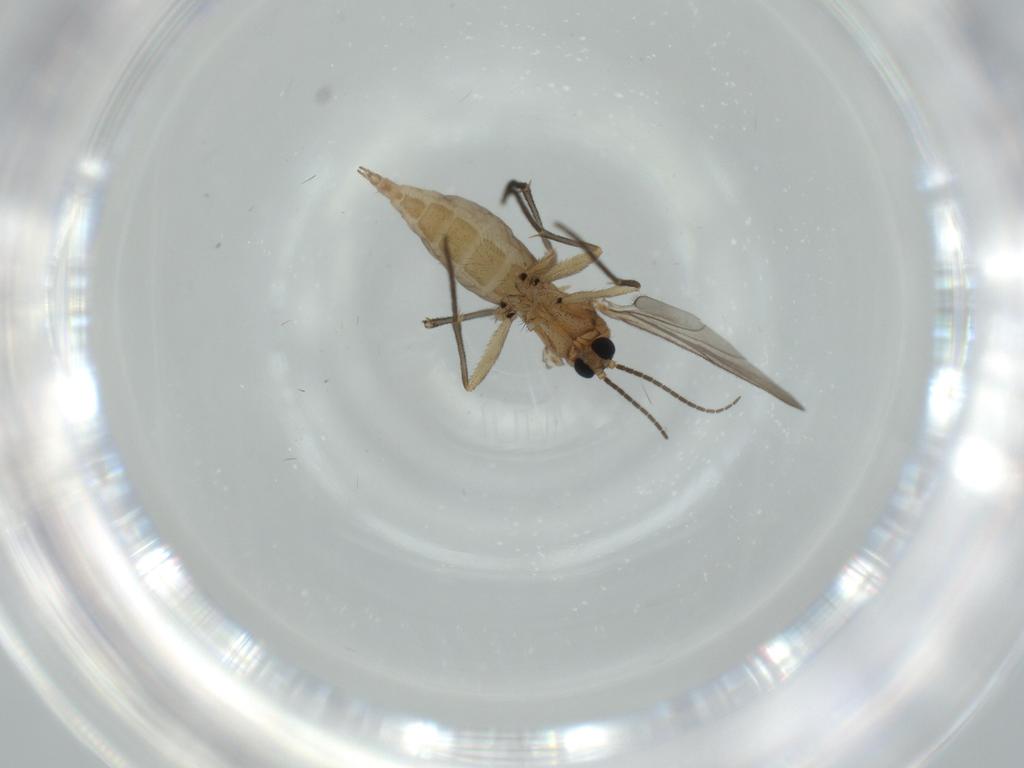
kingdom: Animalia
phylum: Arthropoda
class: Insecta
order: Diptera
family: Sciaridae
